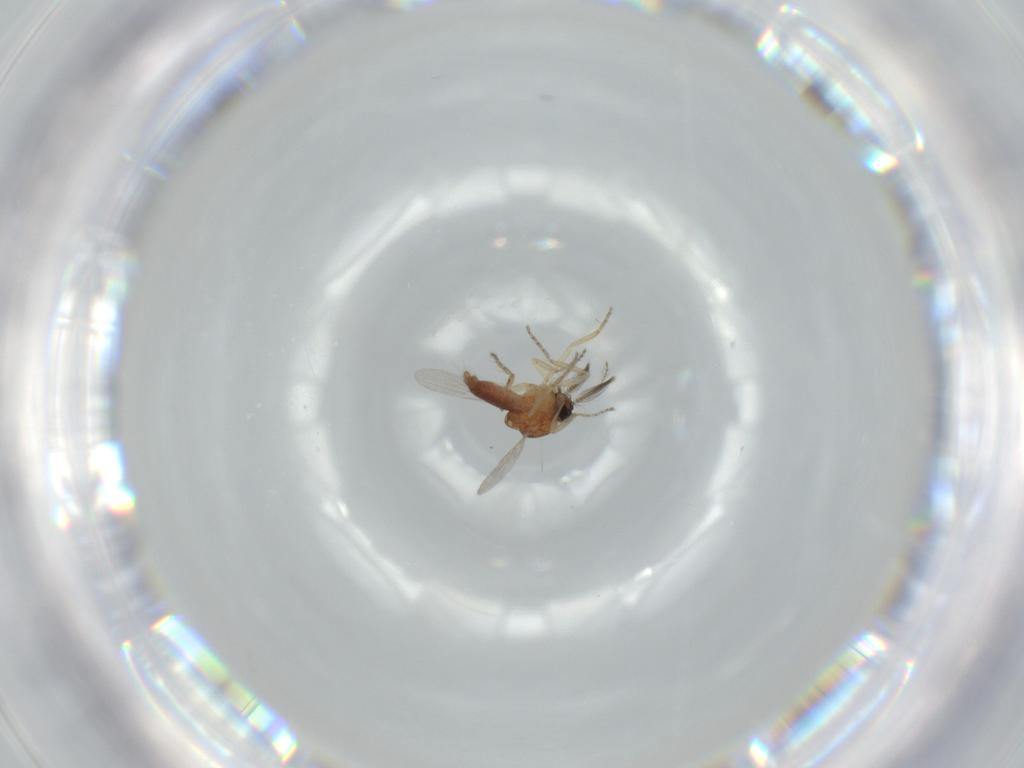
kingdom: Animalia
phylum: Arthropoda
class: Insecta
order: Diptera
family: Ceratopogonidae
